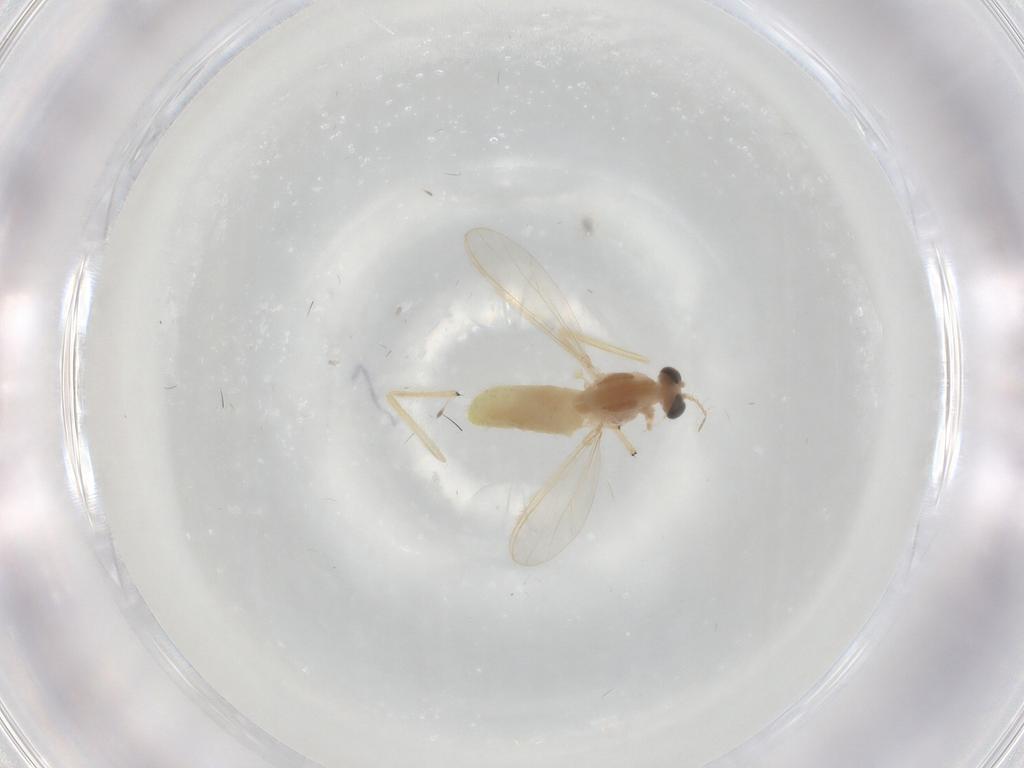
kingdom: Animalia
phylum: Arthropoda
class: Insecta
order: Diptera
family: Chironomidae
